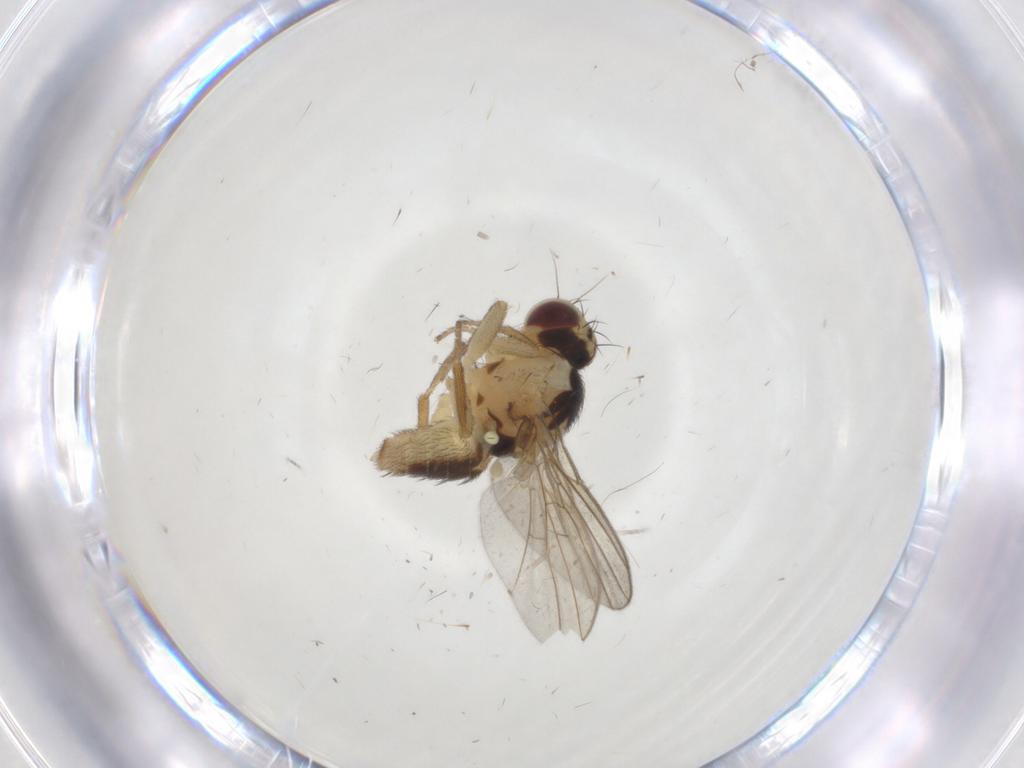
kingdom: Animalia
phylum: Arthropoda
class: Insecta
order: Diptera
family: Agromyzidae
